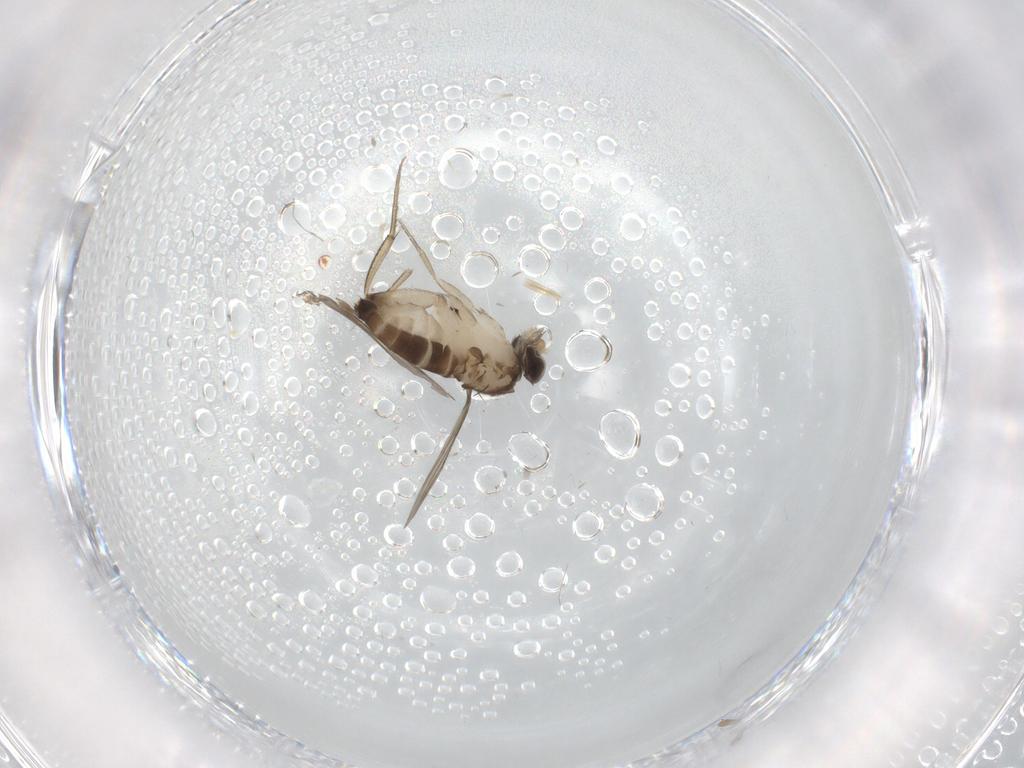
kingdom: Animalia
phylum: Arthropoda
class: Insecta
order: Diptera
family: Phoridae
